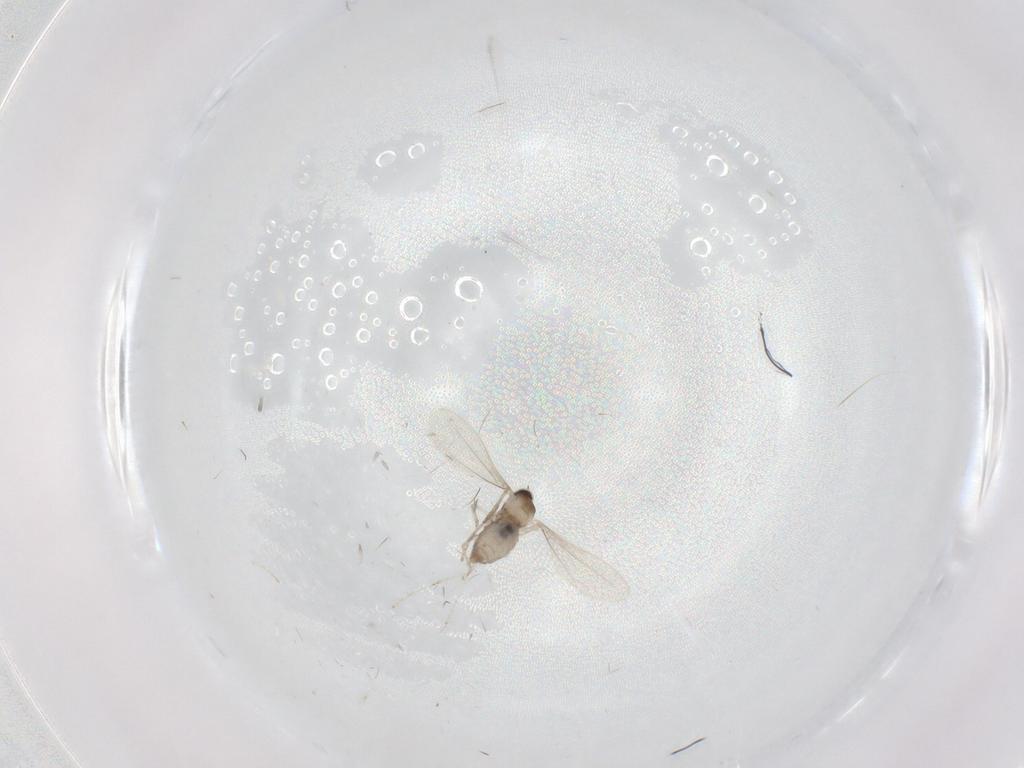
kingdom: Animalia
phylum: Arthropoda
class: Insecta
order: Diptera
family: Cecidomyiidae
